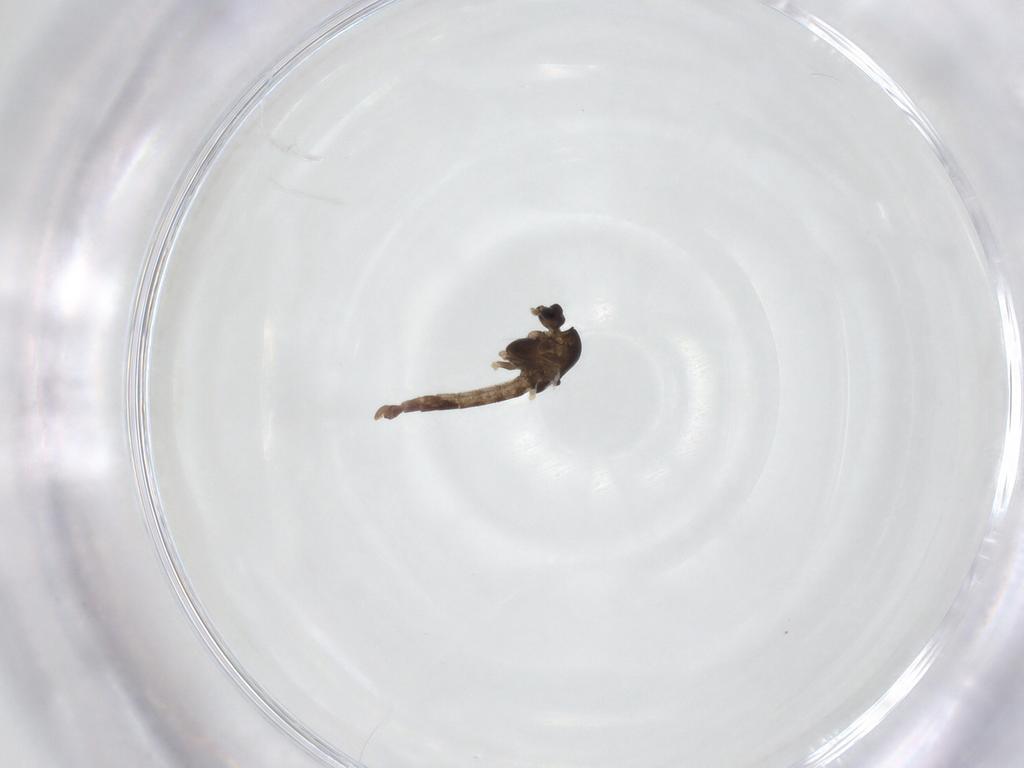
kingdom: Animalia
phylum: Arthropoda
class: Insecta
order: Diptera
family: Chironomidae
